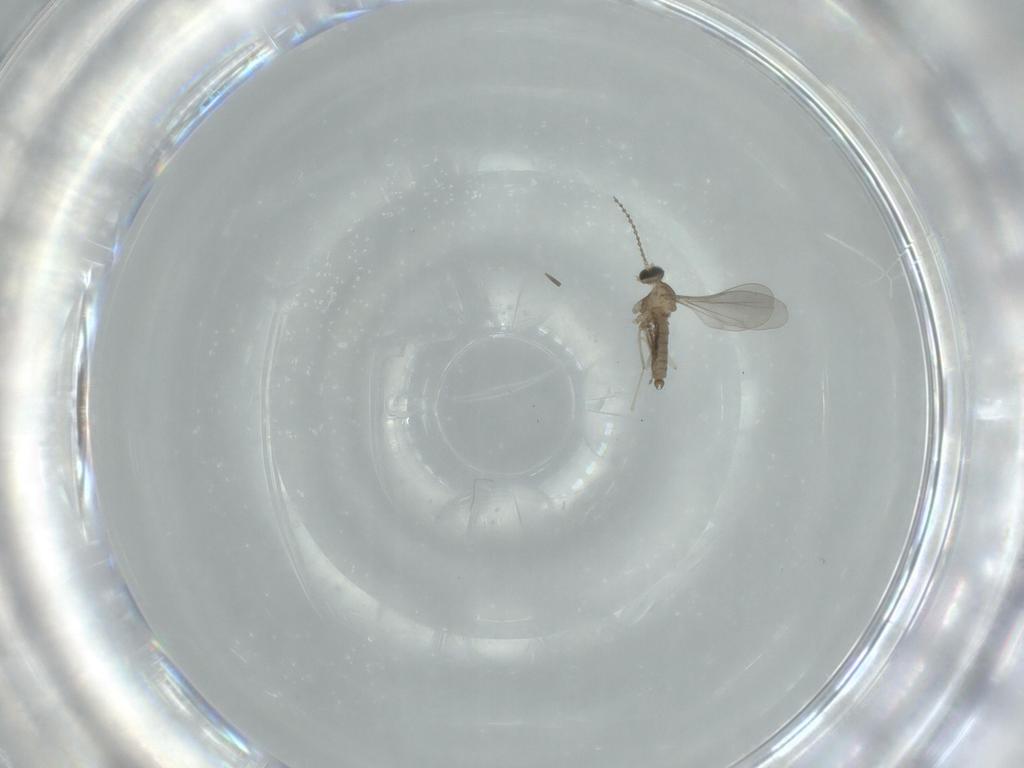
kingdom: Animalia
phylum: Arthropoda
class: Insecta
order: Diptera
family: Cecidomyiidae
